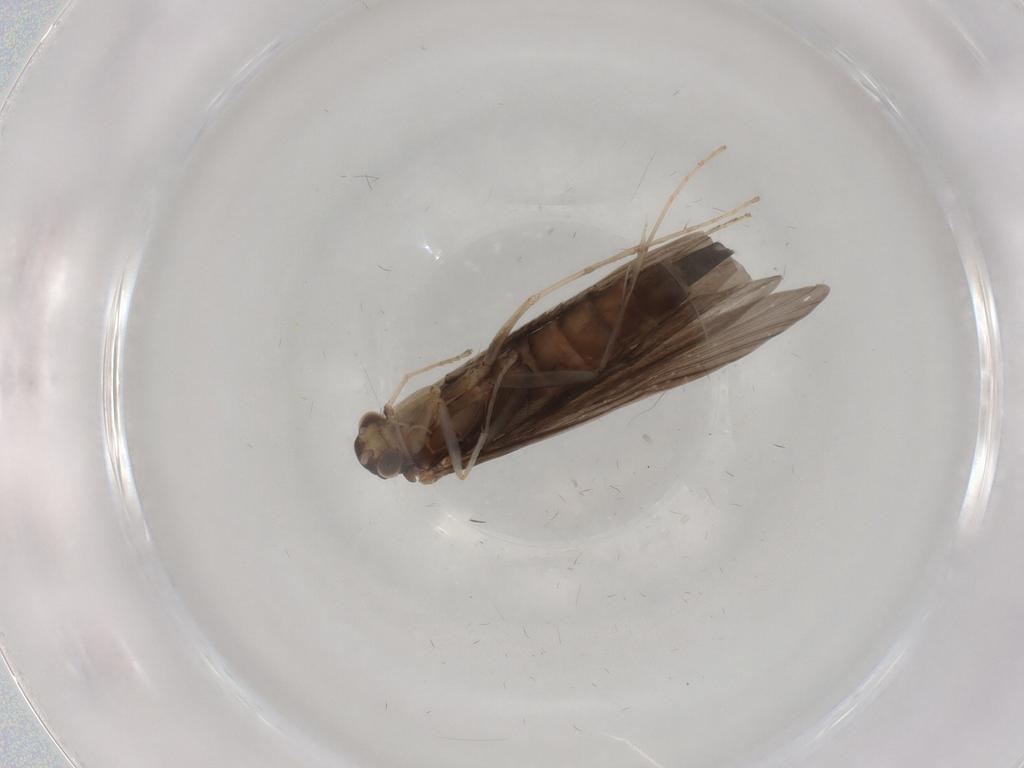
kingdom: Animalia
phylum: Arthropoda
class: Insecta
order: Trichoptera
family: Xiphocentronidae
